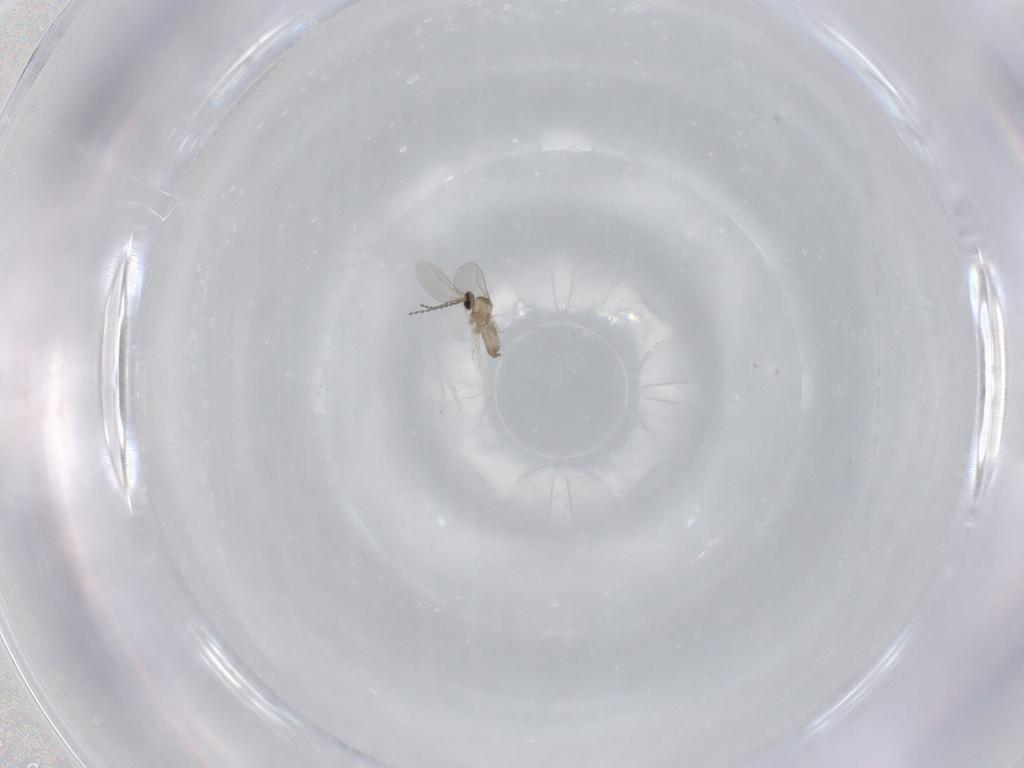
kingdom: Animalia
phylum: Arthropoda
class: Insecta
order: Diptera
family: Cecidomyiidae
